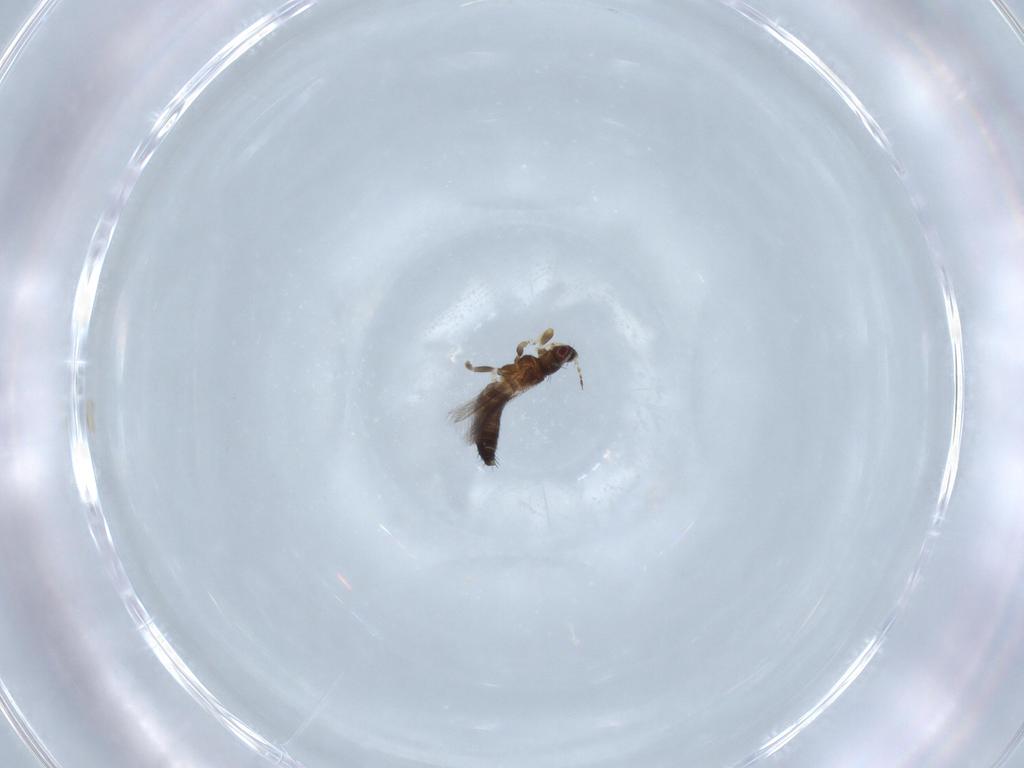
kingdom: Animalia
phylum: Arthropoda
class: Insecta
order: Thysanoptera
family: Thripidae
